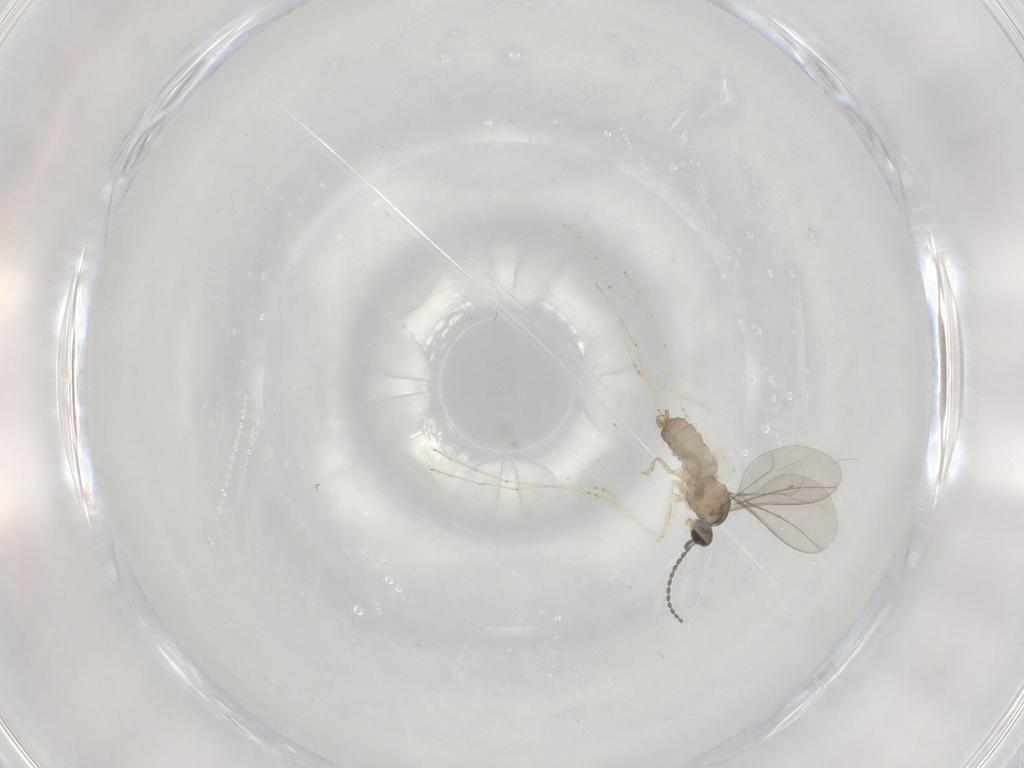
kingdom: Animalia
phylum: Arthropoda
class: Insecta
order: Diptera
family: Cecidomyiidae
